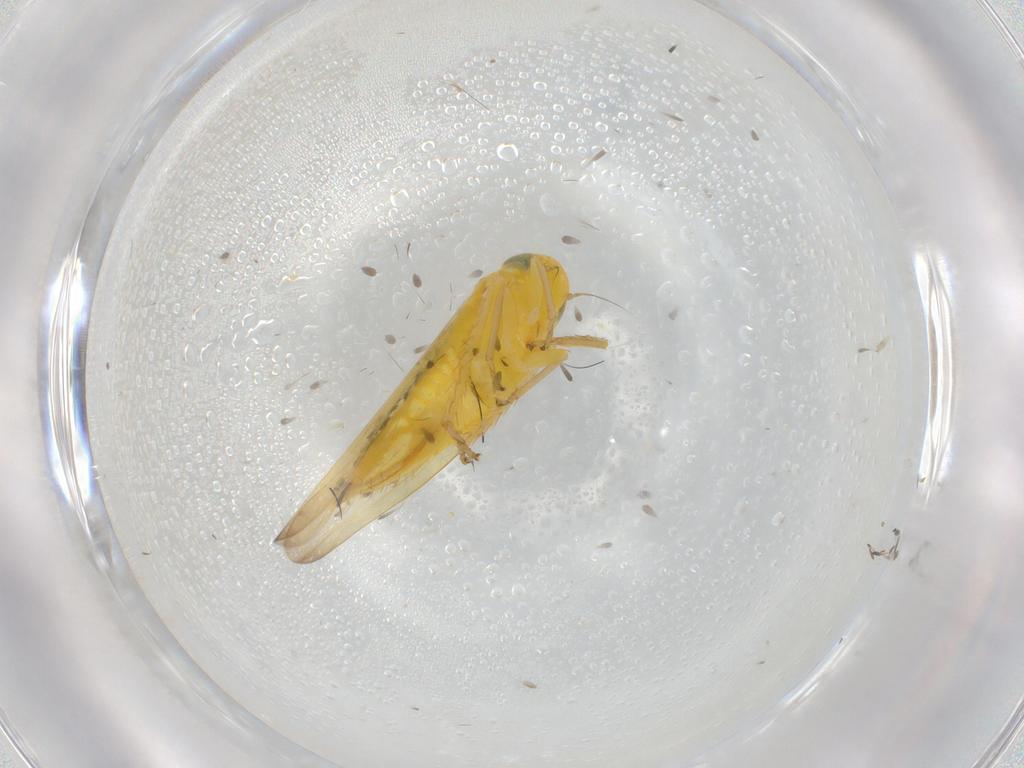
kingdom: Animalia
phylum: Arthropoda
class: Insecta
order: Hemiptera
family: Cicadellidae
